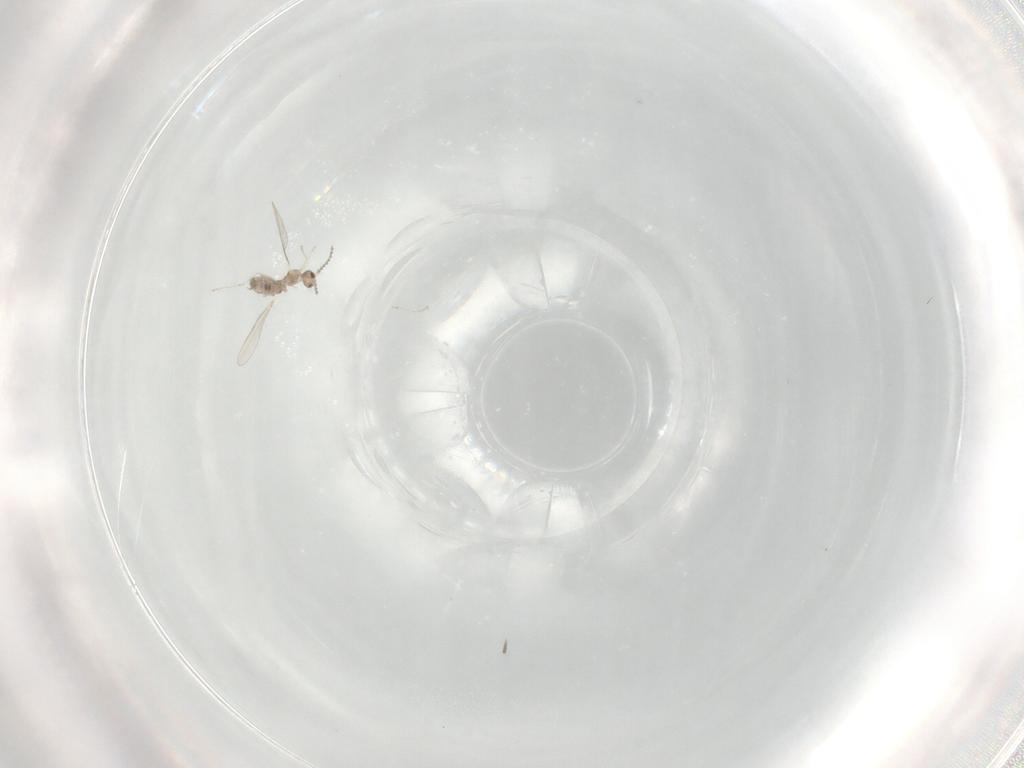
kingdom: Animalia
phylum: Arthropoda
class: Insecta
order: Diptera
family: Cecidomyiidae
